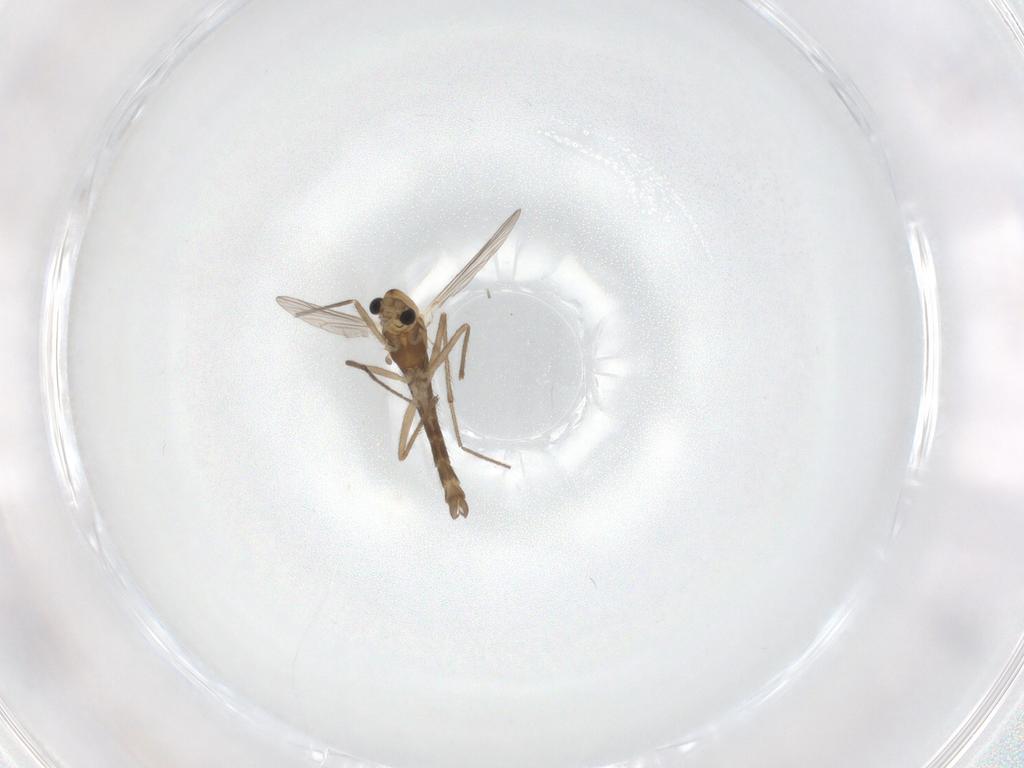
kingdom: Animalia
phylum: Arthropoda
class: Insecta
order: Diptera
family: Chironomidae
